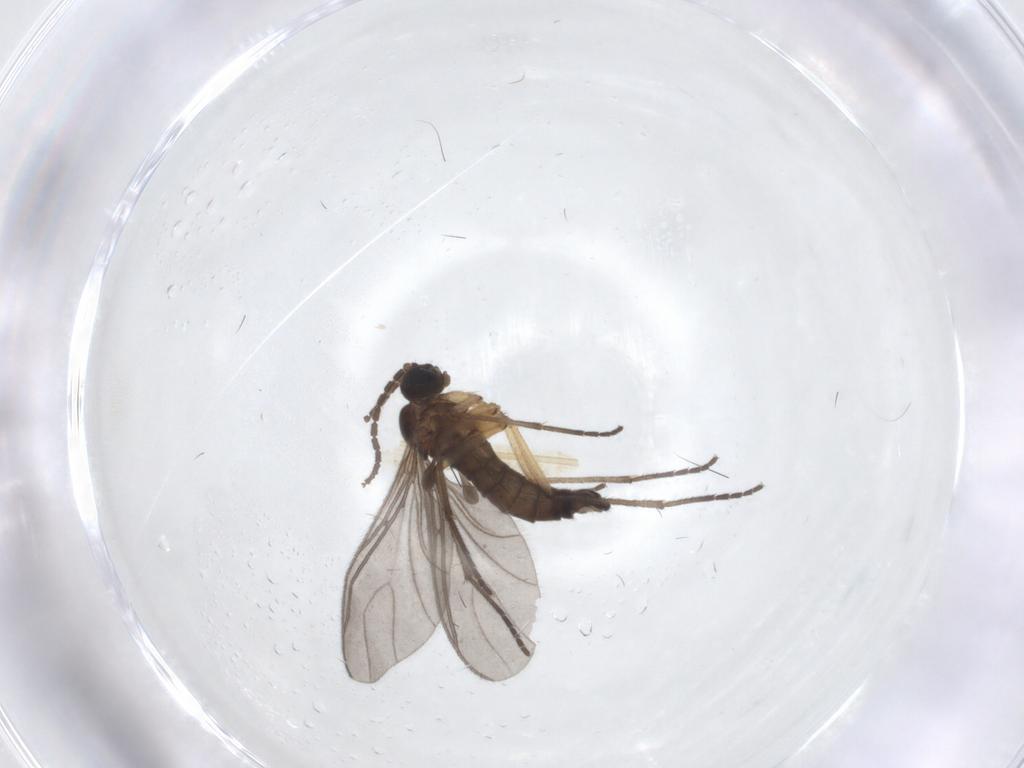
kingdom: Animalia
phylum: Arthropoda
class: Insecta
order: Diptera
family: Sciaridae
